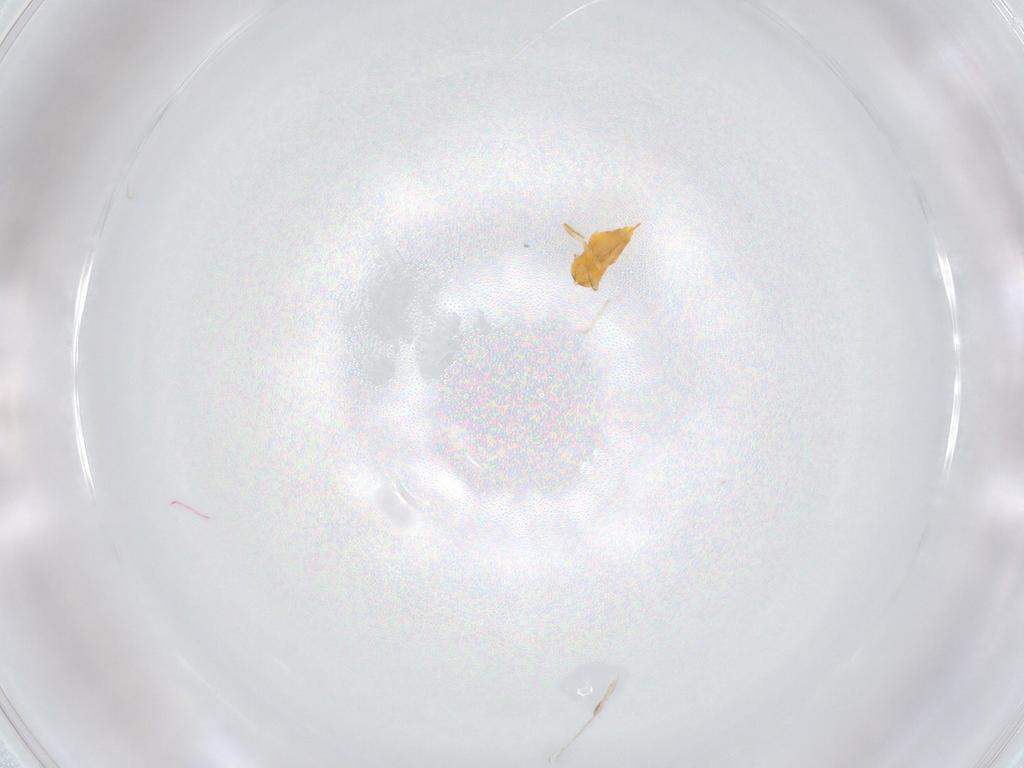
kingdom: Animalia
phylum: Arthropoda
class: Insecta
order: Hymenoptera
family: Aphelinidae
